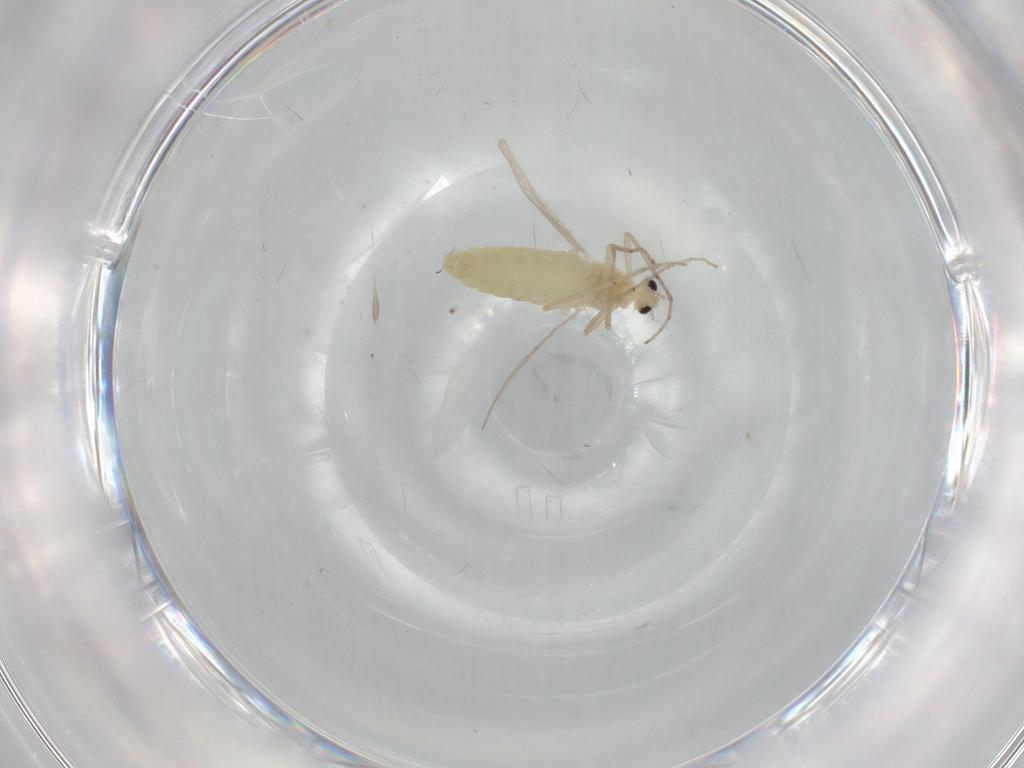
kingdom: Animalia
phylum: Arthropoda
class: Insecta
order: Diptera
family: Chironomidae
